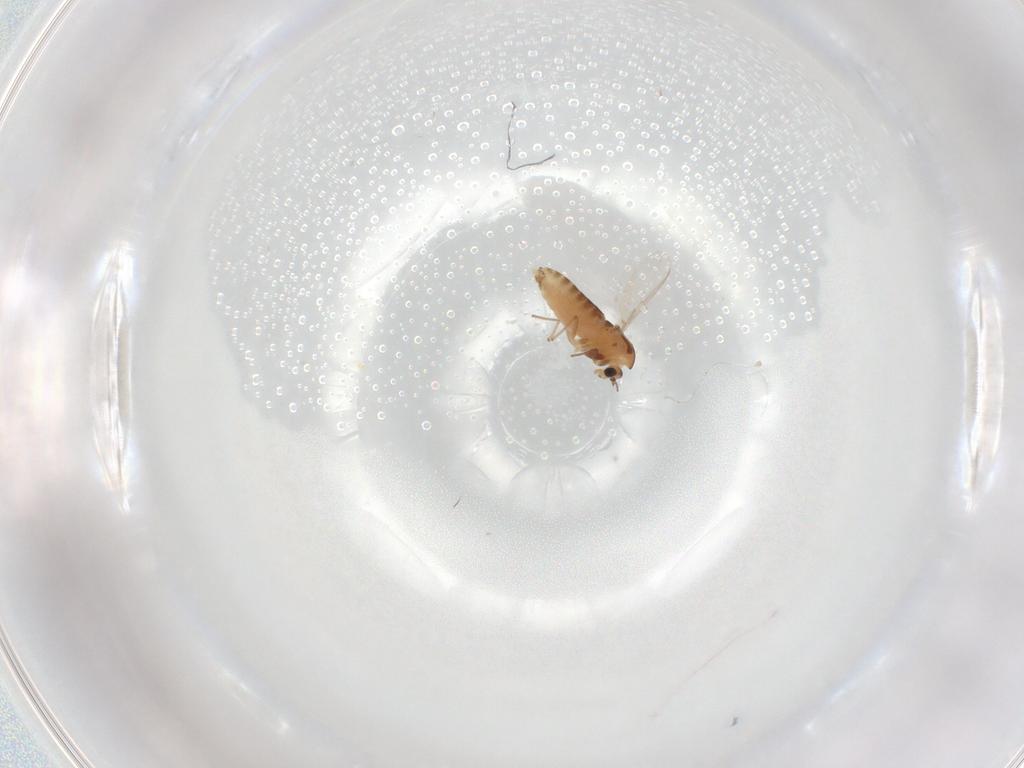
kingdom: Animalia
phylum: Arthropoda
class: Insecta
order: Diptera
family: Chironomidae
